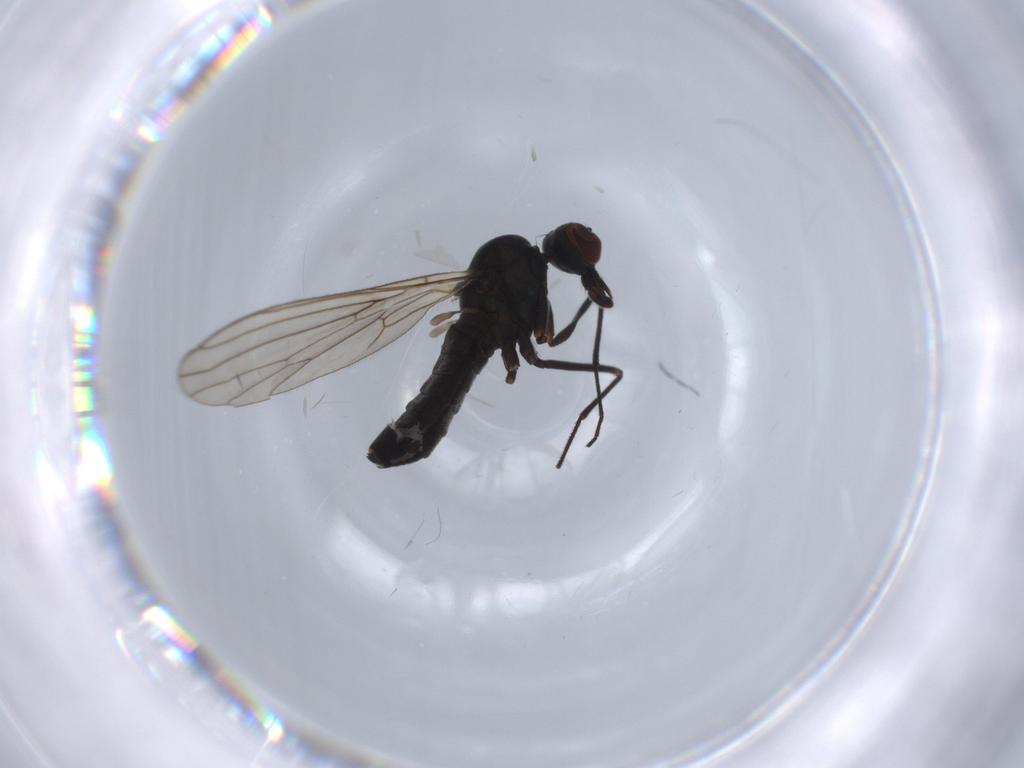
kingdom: Animalia
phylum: Arthropoda
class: Insecta
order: Diptera
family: Cecidomyiidae
